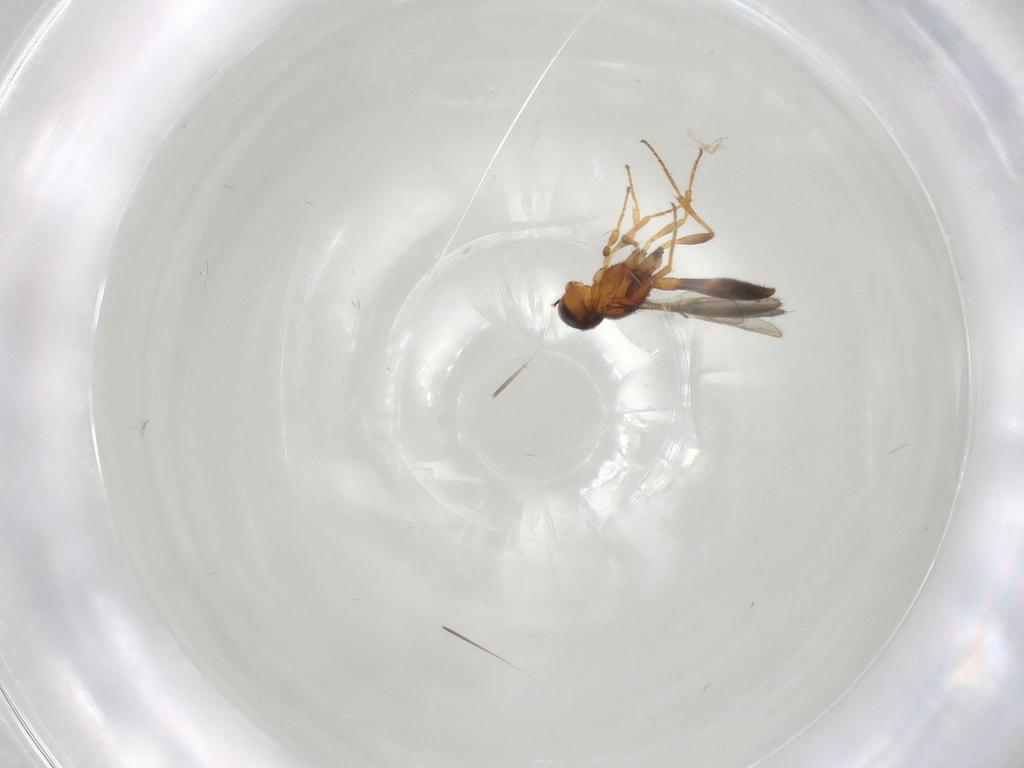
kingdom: Animalia
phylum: Arthropoda
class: Insecta
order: Hymenoptera
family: Scelionidae
